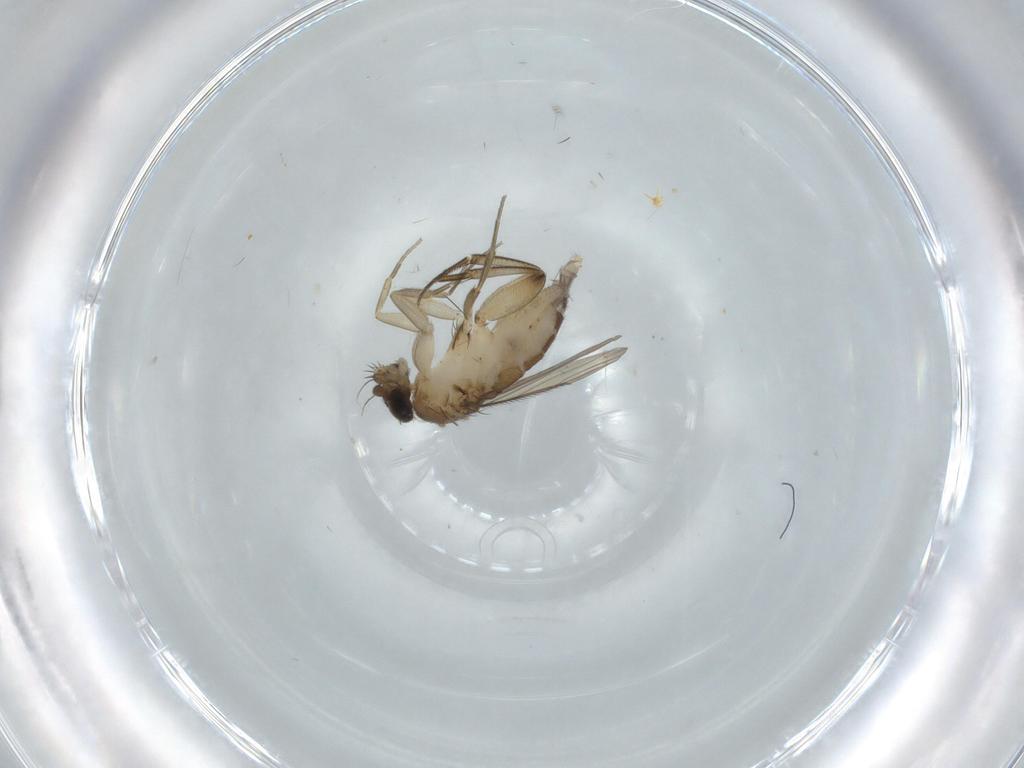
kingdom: Animalia
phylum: Arthropoda
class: Insecta
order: Diptera
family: Phoridae
